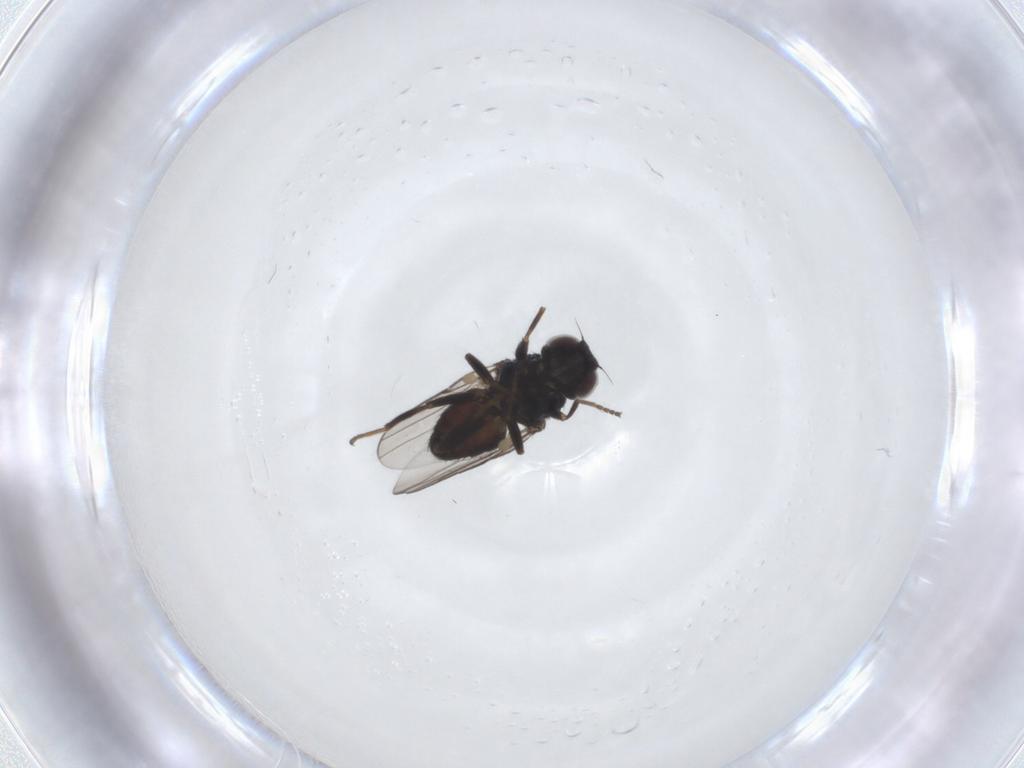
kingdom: Animalia
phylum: Arthropoda
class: Insecta
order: Diptera
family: Chloropidae
